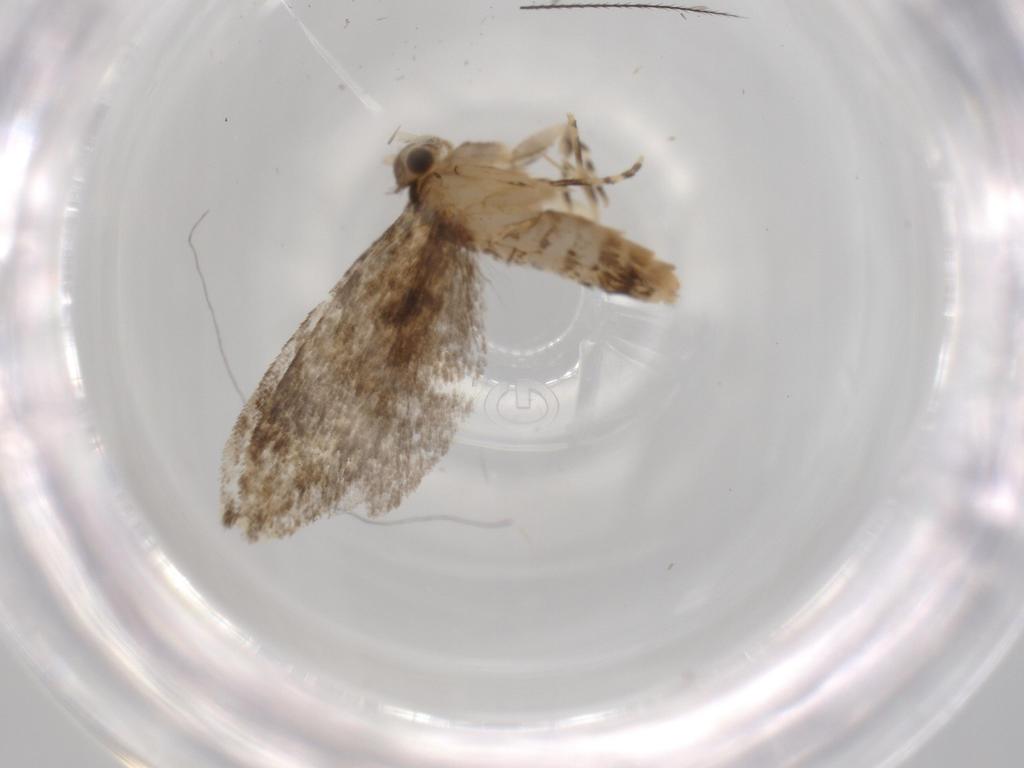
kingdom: Animalia
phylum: Arthropoda
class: Insecta
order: Lepidoptera
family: Tineidae
